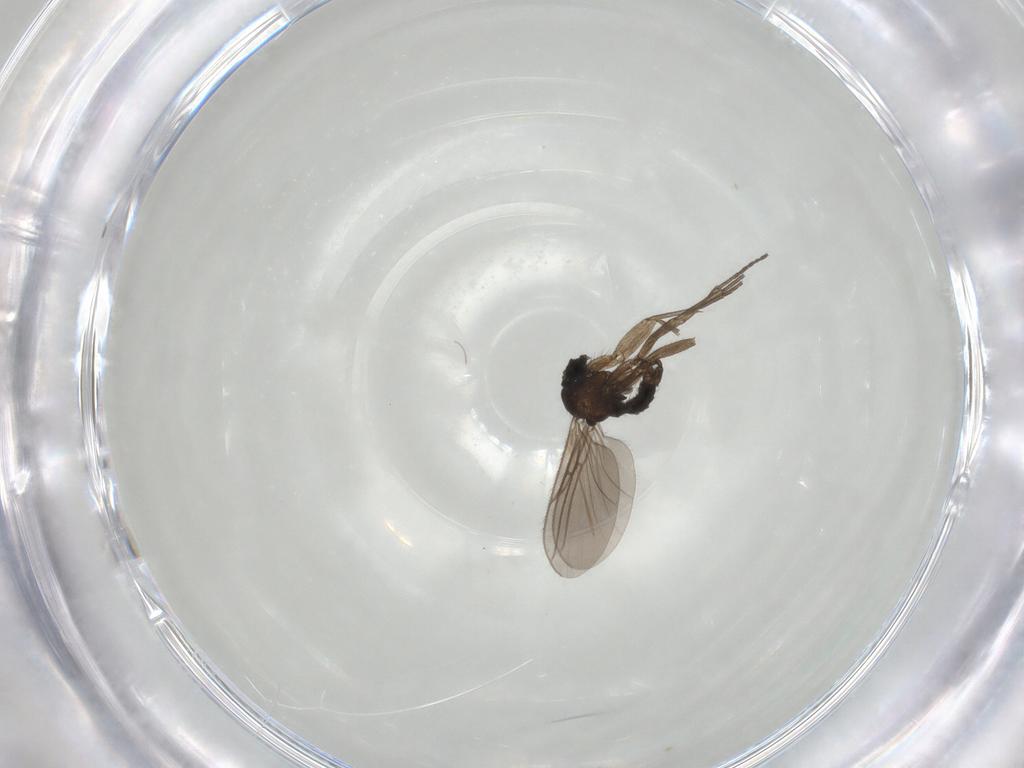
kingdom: Animalia
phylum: Arthropoda
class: Insecta
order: Diptera
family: Sciaridae
